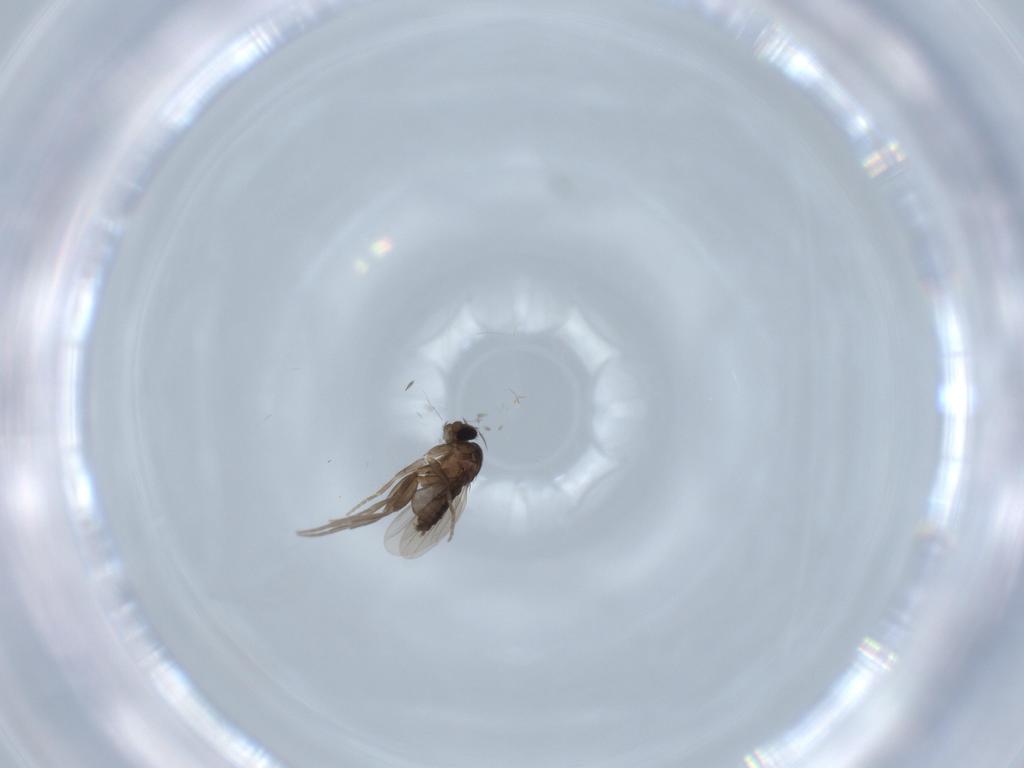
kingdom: Animalia
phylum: Arthropoda
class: Insecta
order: Diptera
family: Phoridae
